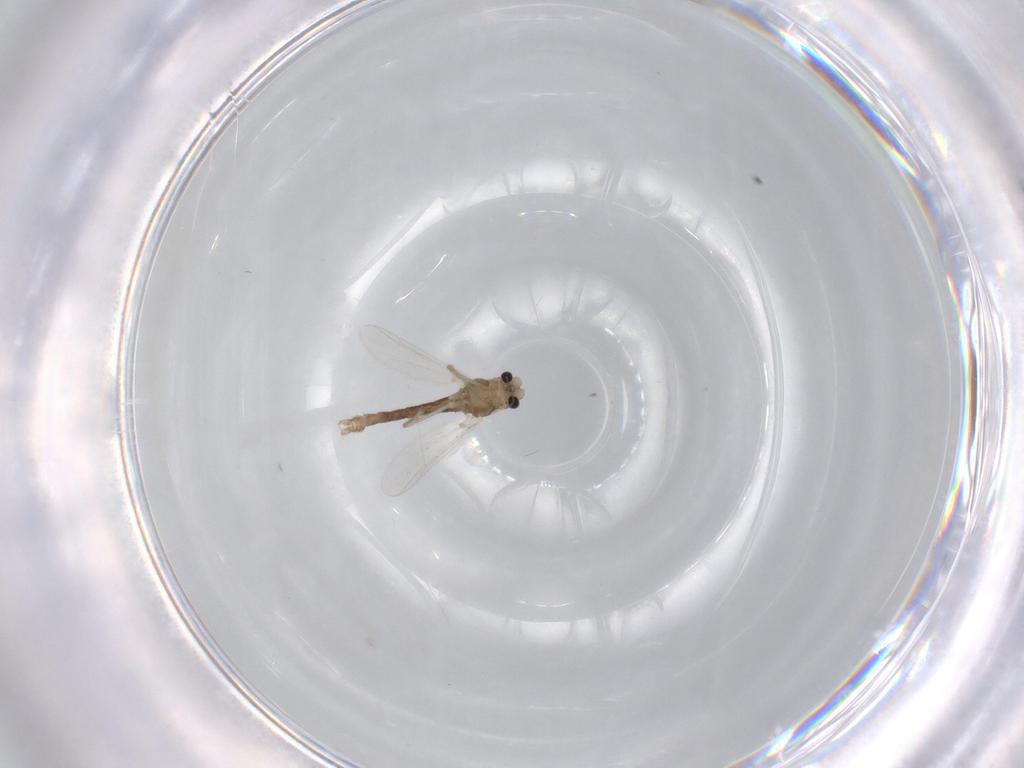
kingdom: Animalia
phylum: Arthropoda
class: Insecta
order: Diptera
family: Chironomidae
